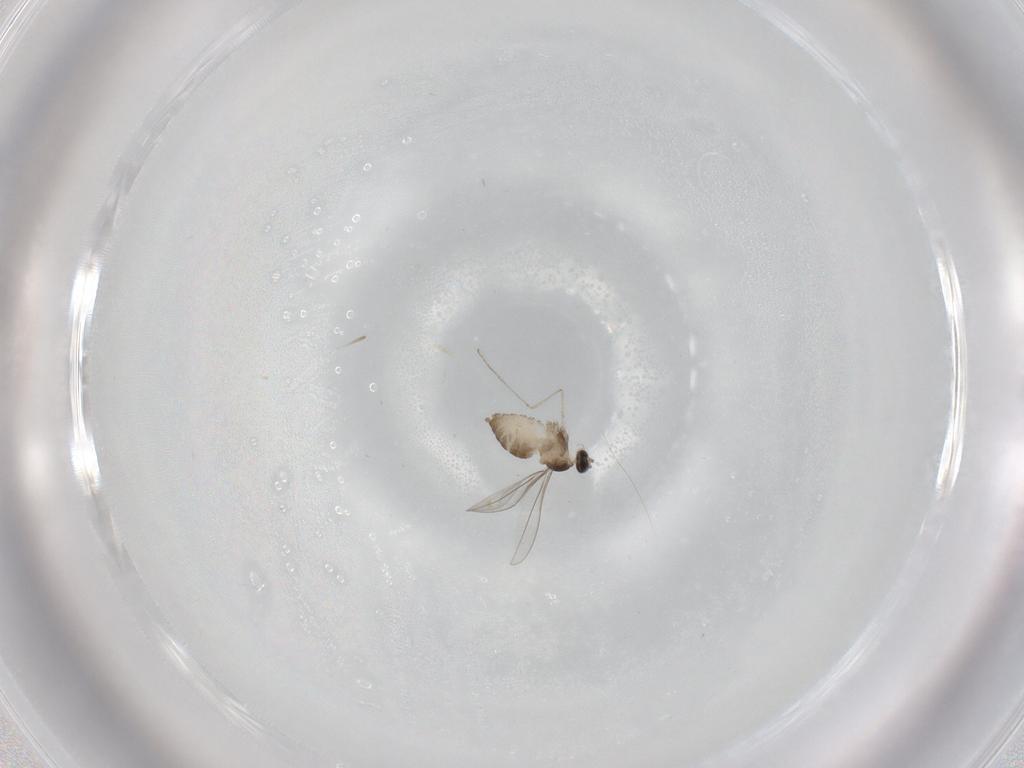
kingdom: Animalia
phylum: Arthropoda
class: Insecta
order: Diptera
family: Cecidomyiidae
